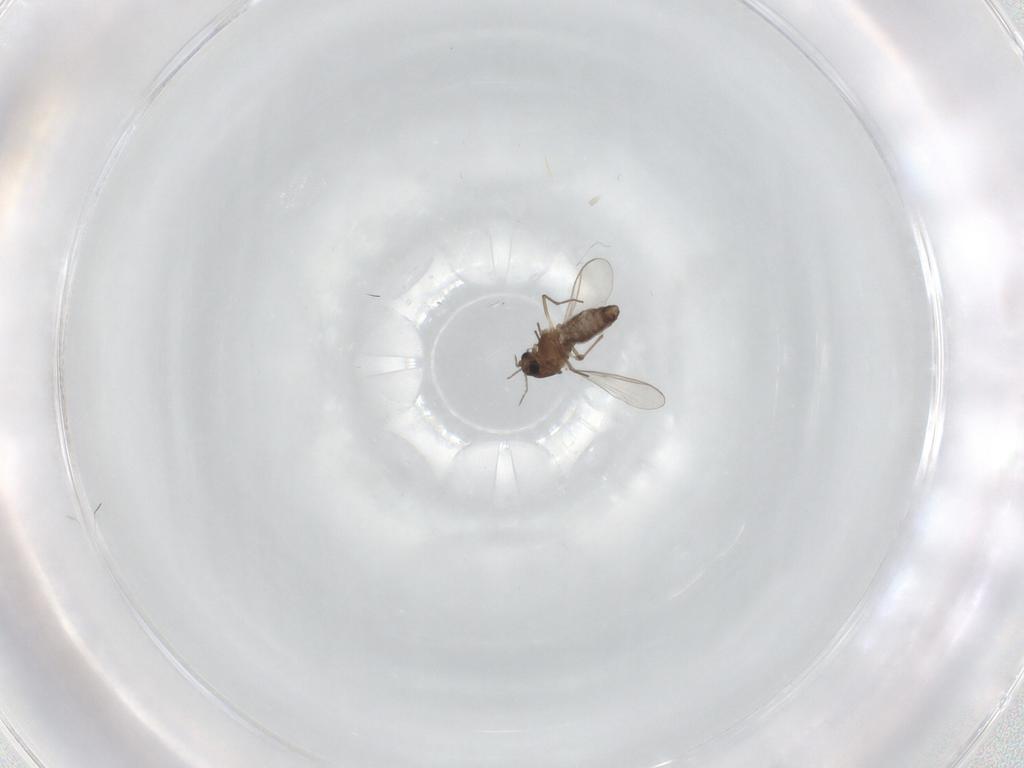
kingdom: Animalia
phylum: Arthropoda
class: Insecta
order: Diptera
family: Chironomidae
